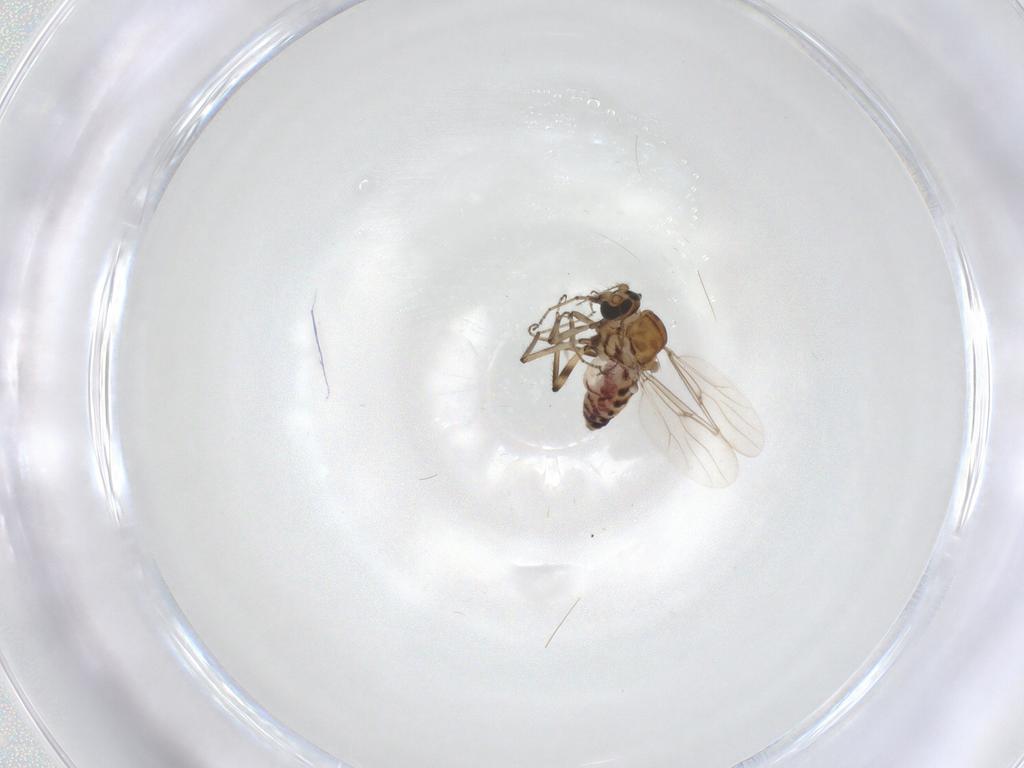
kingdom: Animalia
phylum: Arthropoda
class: Insecta
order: Diptera
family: Ceratopogonidae
